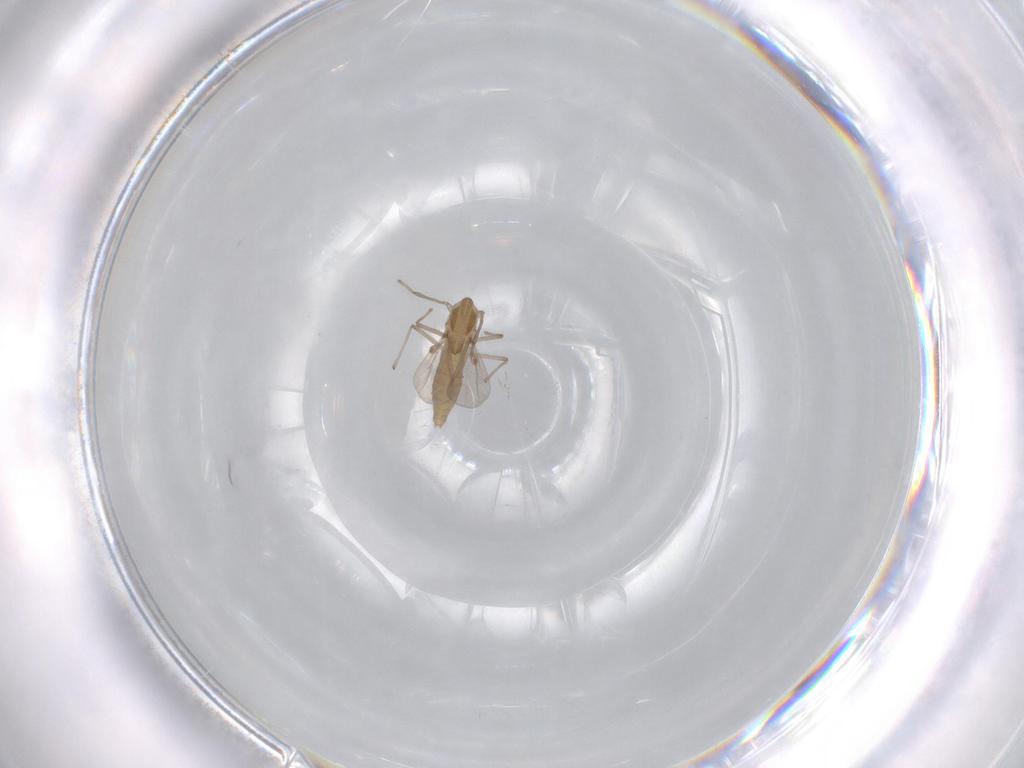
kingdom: Animalia
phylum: Arthropoda
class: Insecta
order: Diptera
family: Chironomidae
